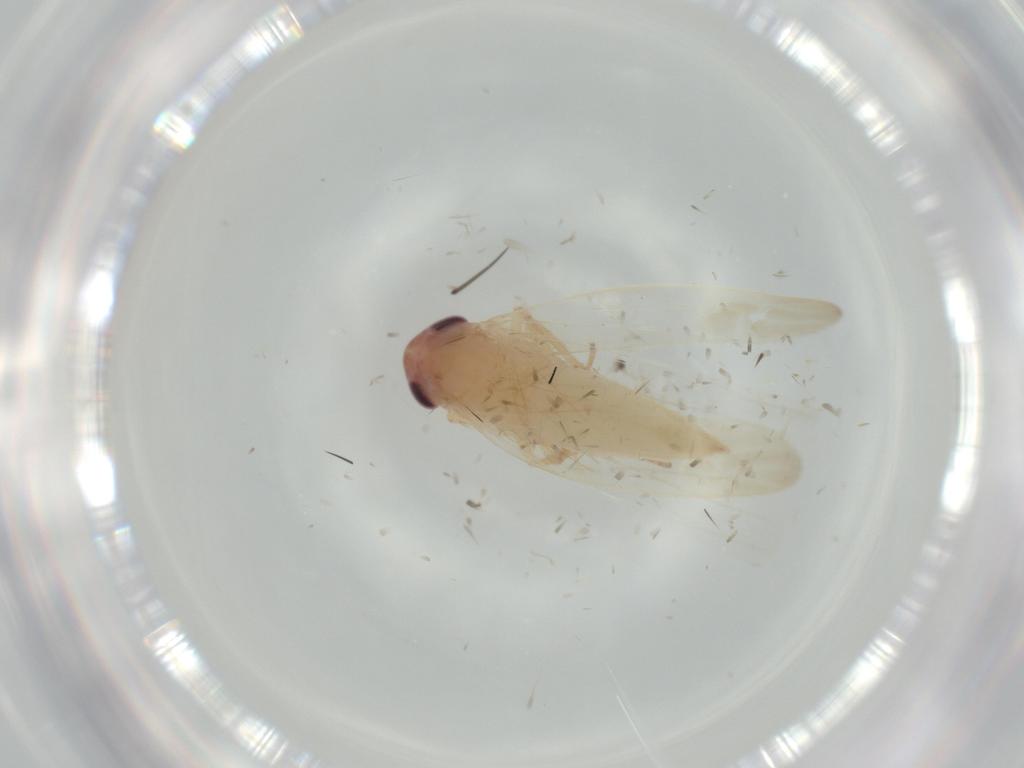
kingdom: Animalia
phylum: Arthropoda
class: Insecta
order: Hemiptera
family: Cicadellidae
